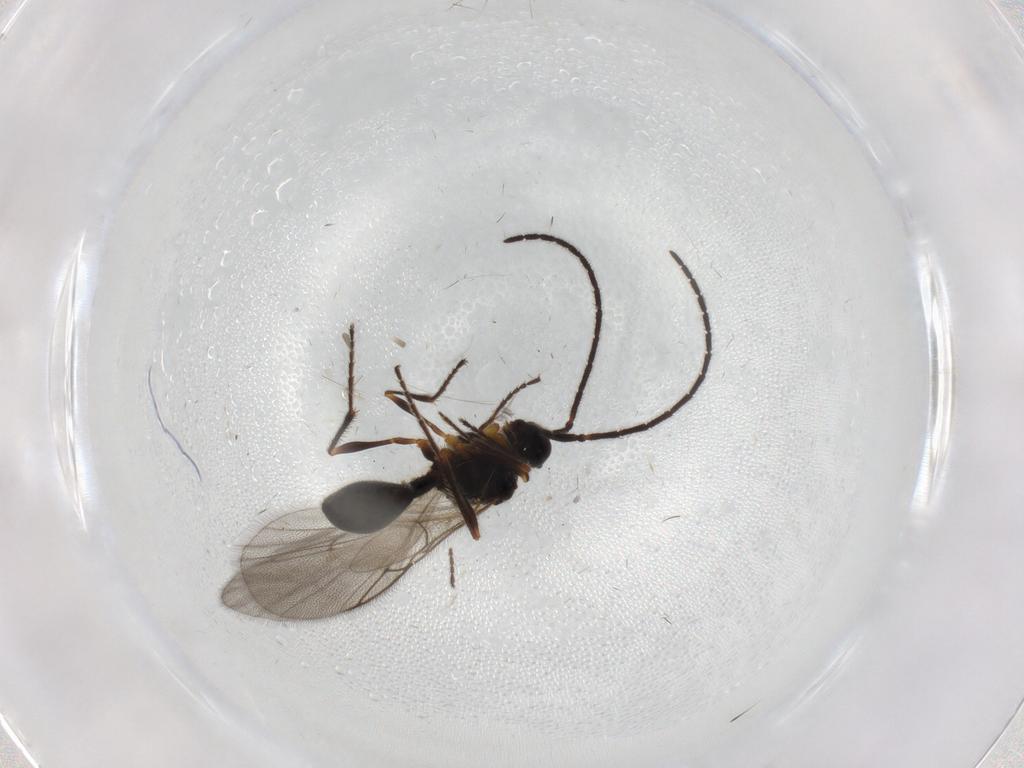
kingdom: Animalia
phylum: Arthropoda
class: Insecta
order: Hymenoptera
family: Diapriidae
